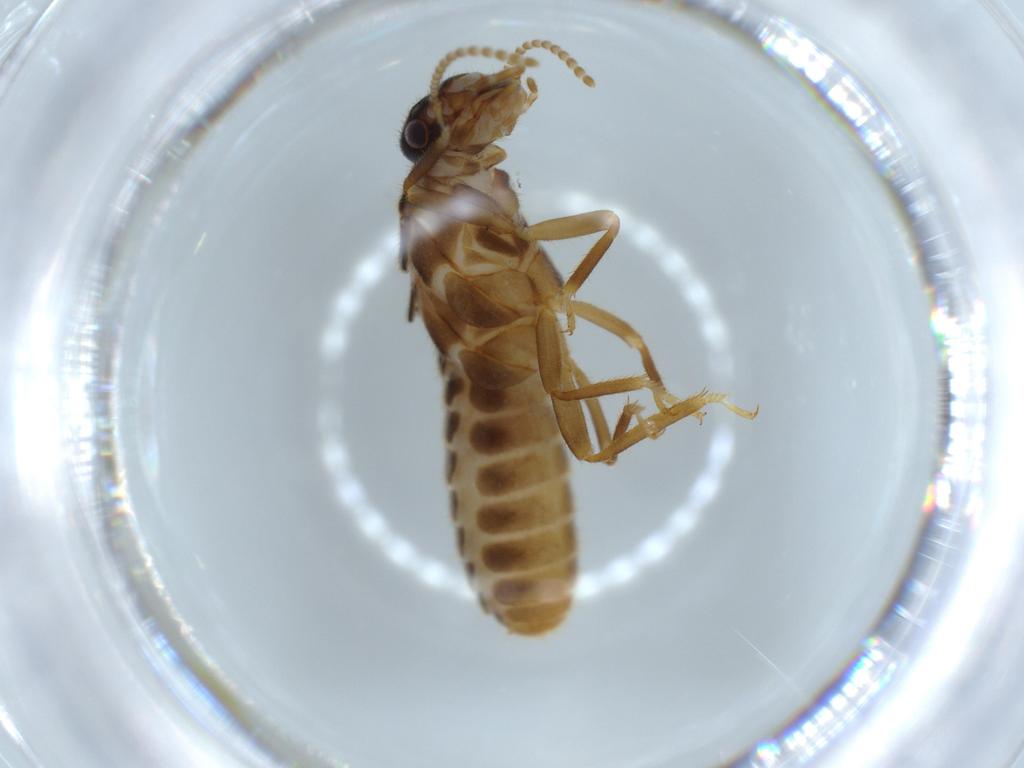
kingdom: Animalia
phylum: Arthropoda
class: Insecta
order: Blattodea
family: Termitidae
